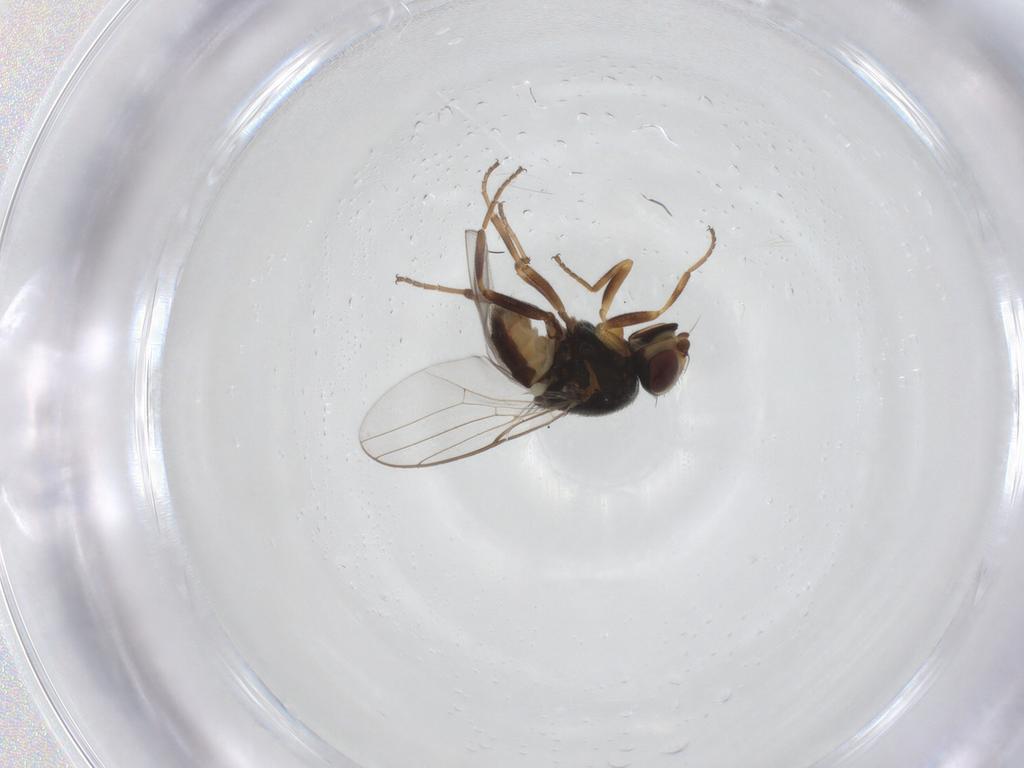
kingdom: Animalia
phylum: Arthropoda
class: Insecta
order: Diptera
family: Chloropidae
